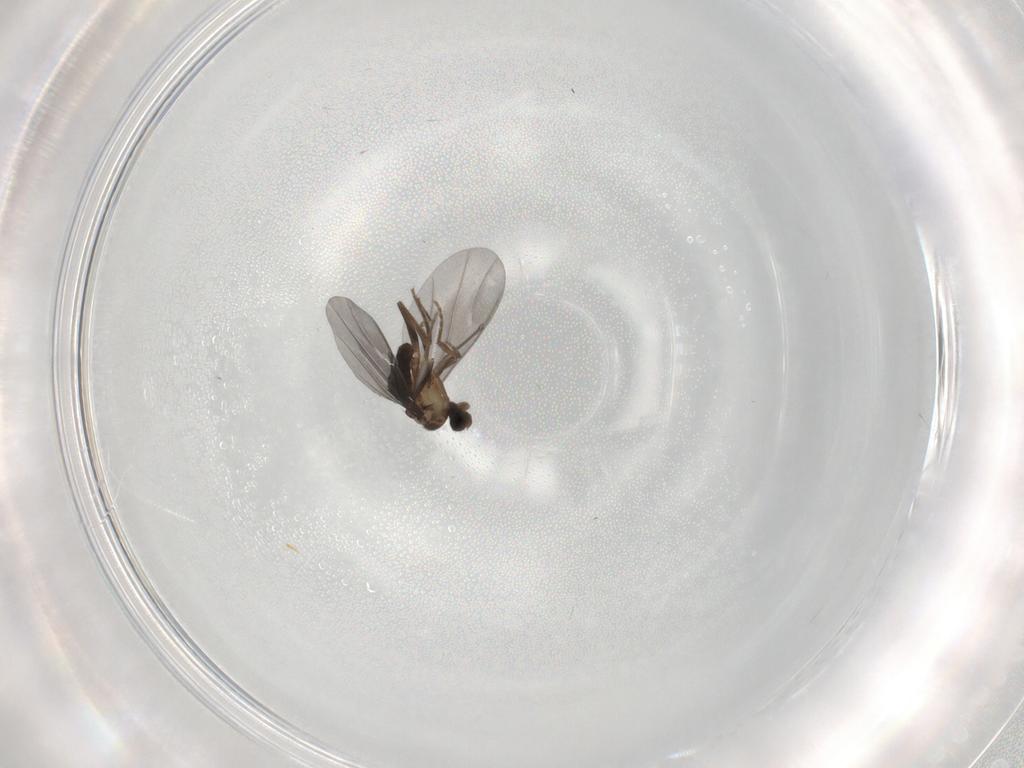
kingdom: Animalia
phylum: Arthropoda
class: Insecta
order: Diptera
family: Phoridae
